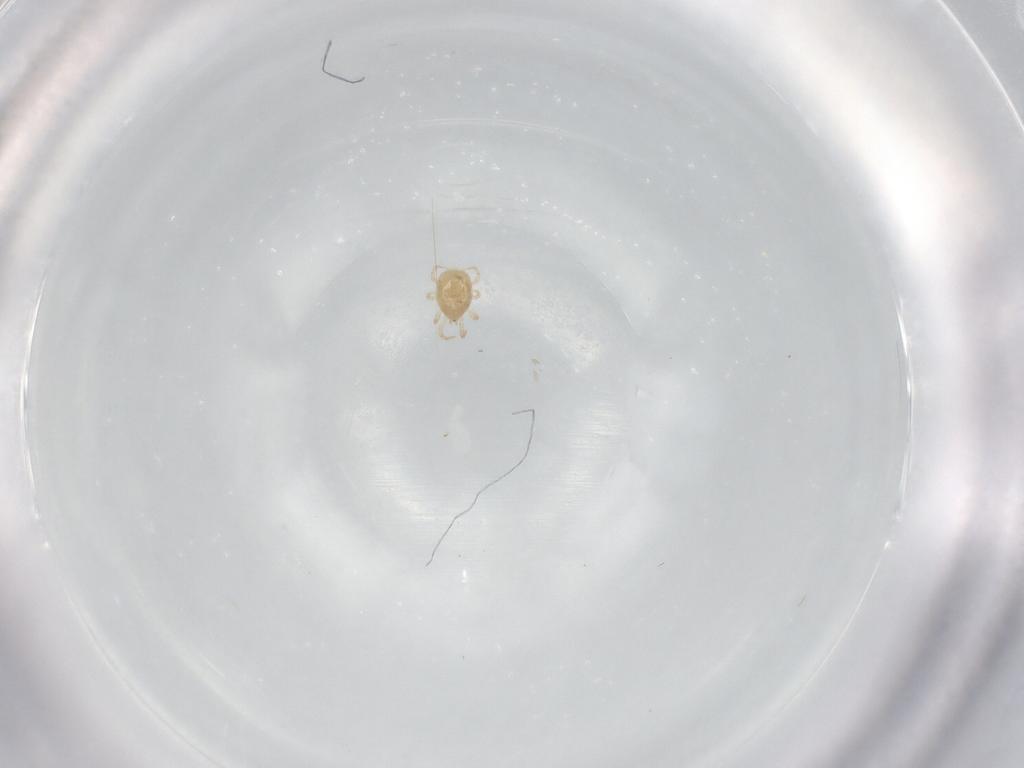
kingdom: Animalia
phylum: Arthropoda
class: Arachnida
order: Mesostigmata
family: Phytoseiidae
